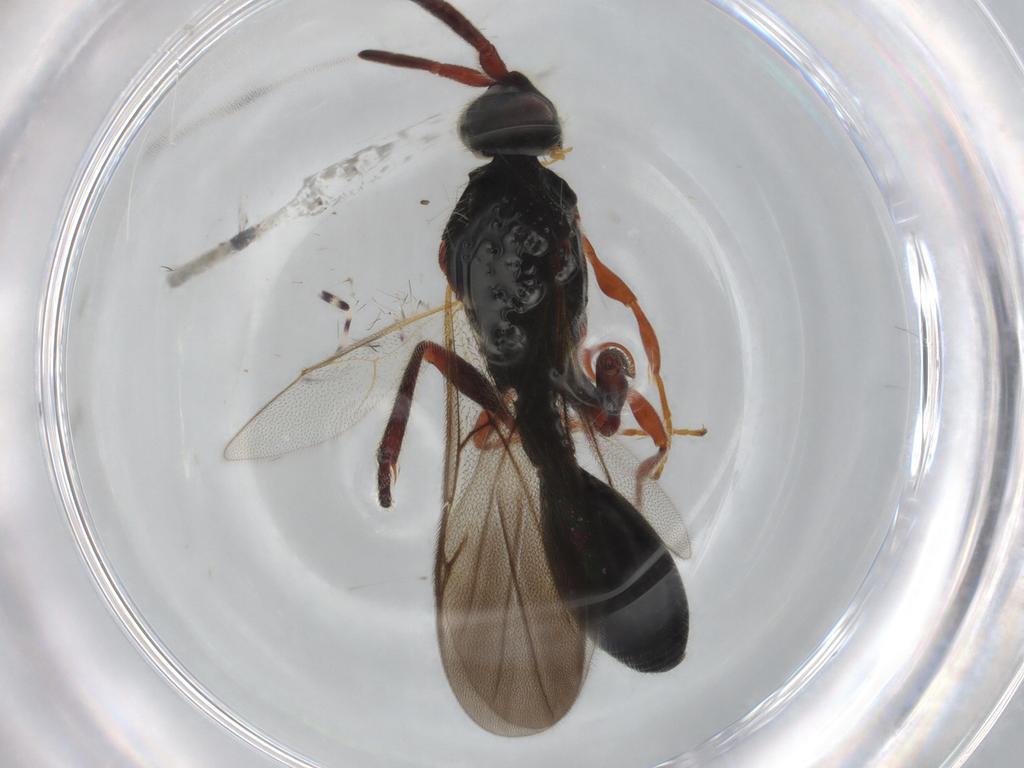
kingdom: Animalia
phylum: Arthropoda
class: Insecta
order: Hymenoptera
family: Diapriidae
